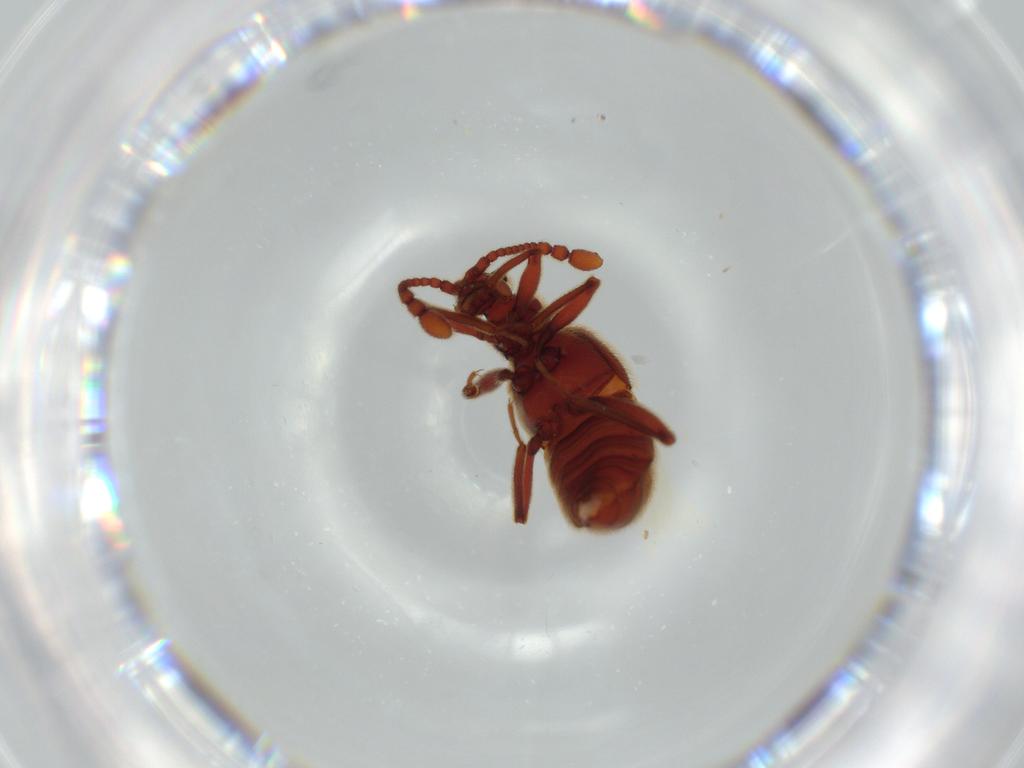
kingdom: Animalia
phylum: Arthropoda
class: Insecta
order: Coleoptera
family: Staphylinidae
